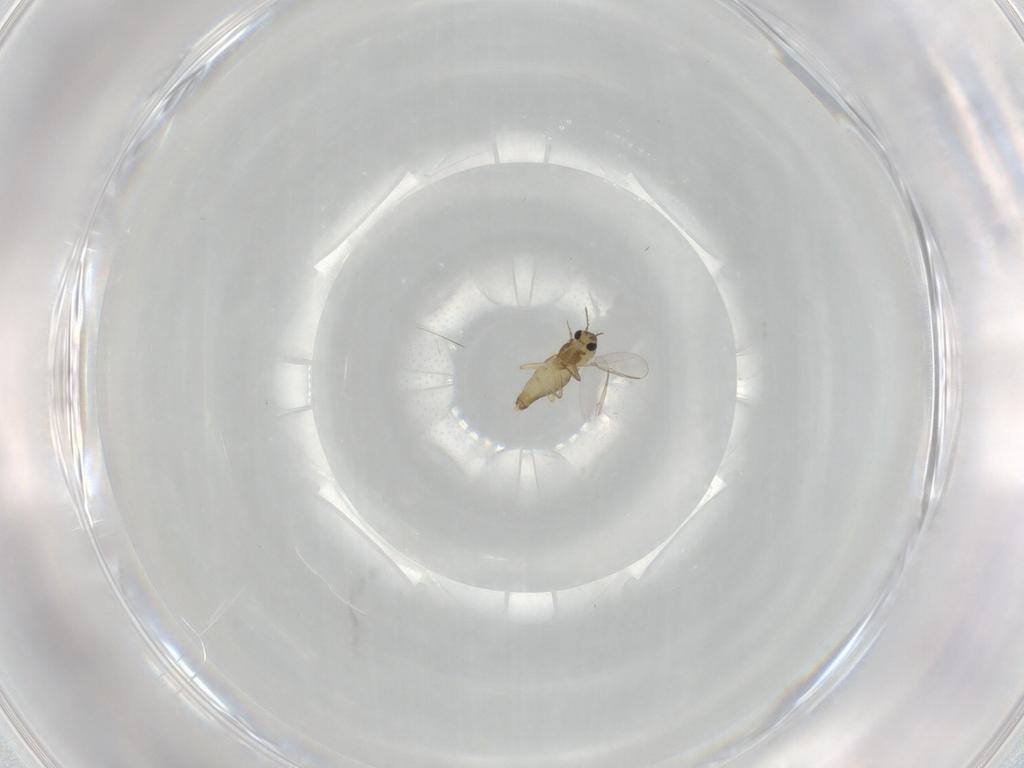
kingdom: Animalia
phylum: Arthropoda
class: Insecta
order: Diptera
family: Chironomidae
